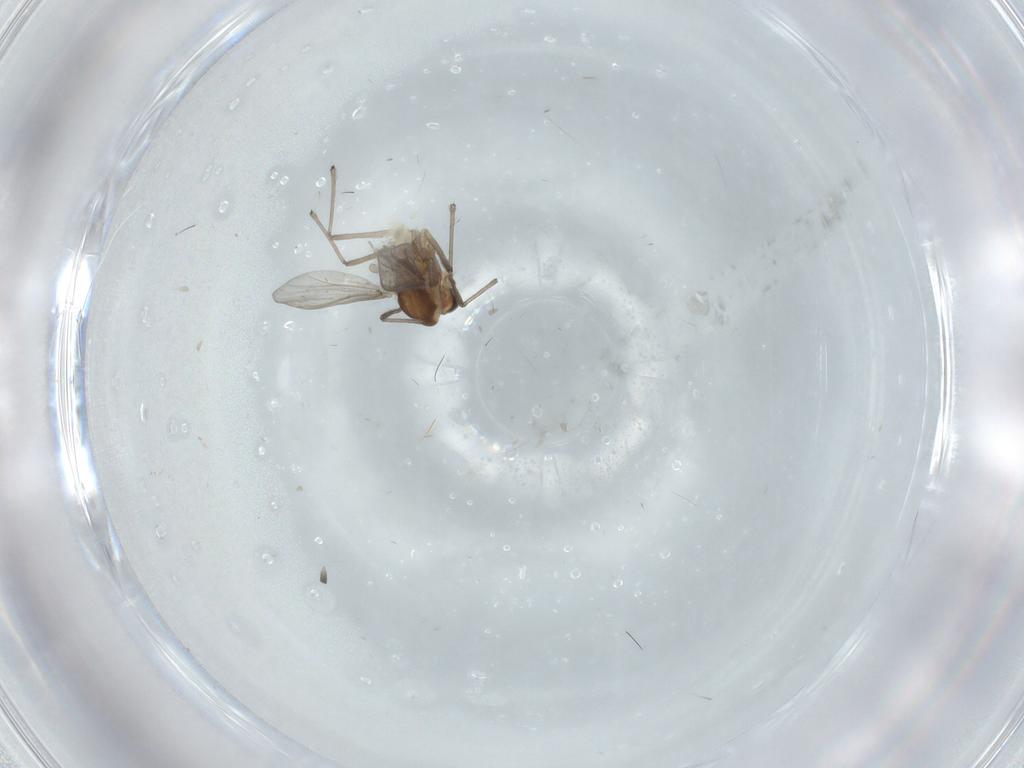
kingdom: Animalia
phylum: Arthropoda
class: Insecta
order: Diptera
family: Chironomidae
